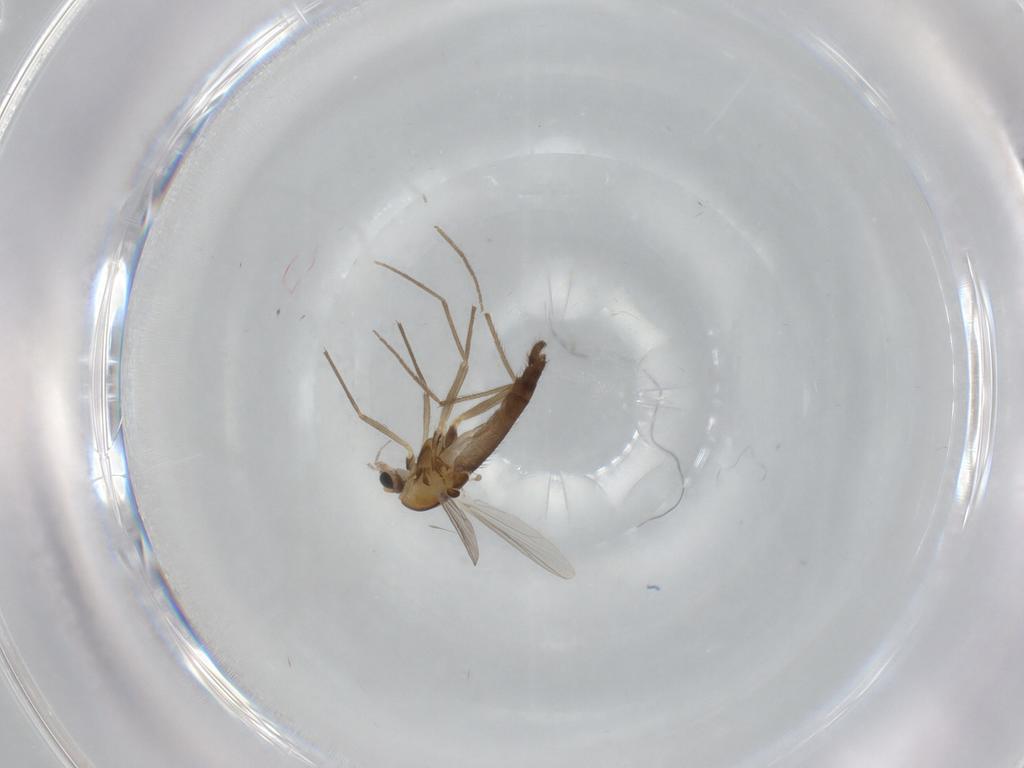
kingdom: Animalia
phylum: Arthropoda
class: Insecta
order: Diptera
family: Chironomidae
